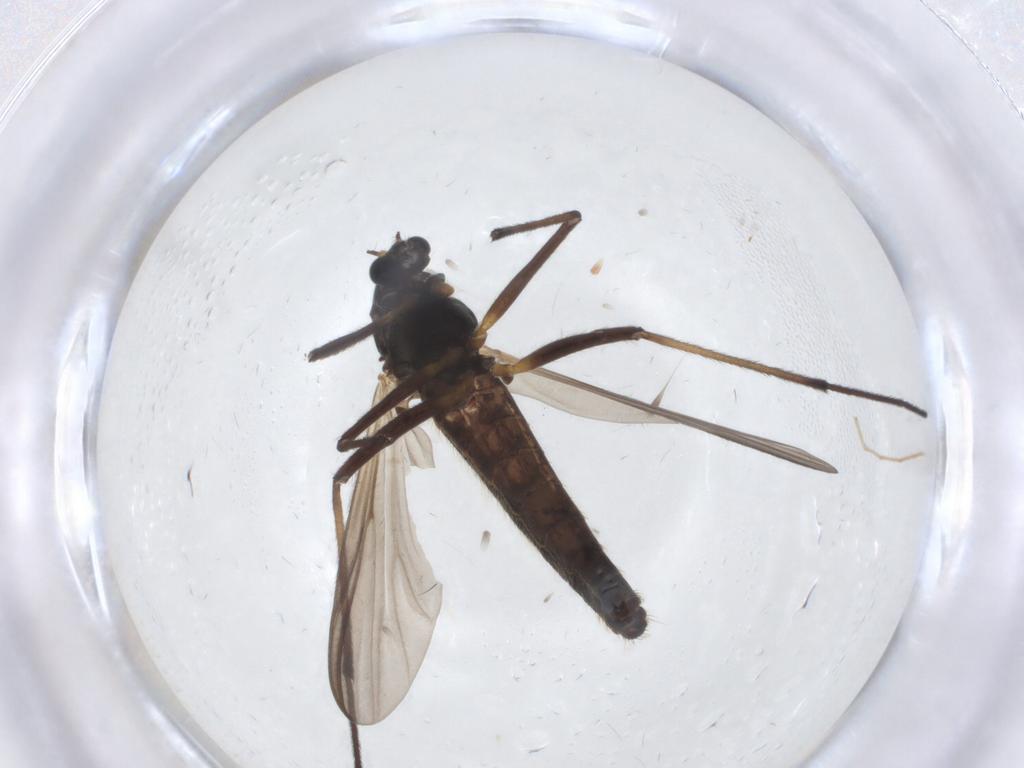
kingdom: Animalia
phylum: Arthropoda
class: Insecta
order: Diptera
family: Chironomidae
